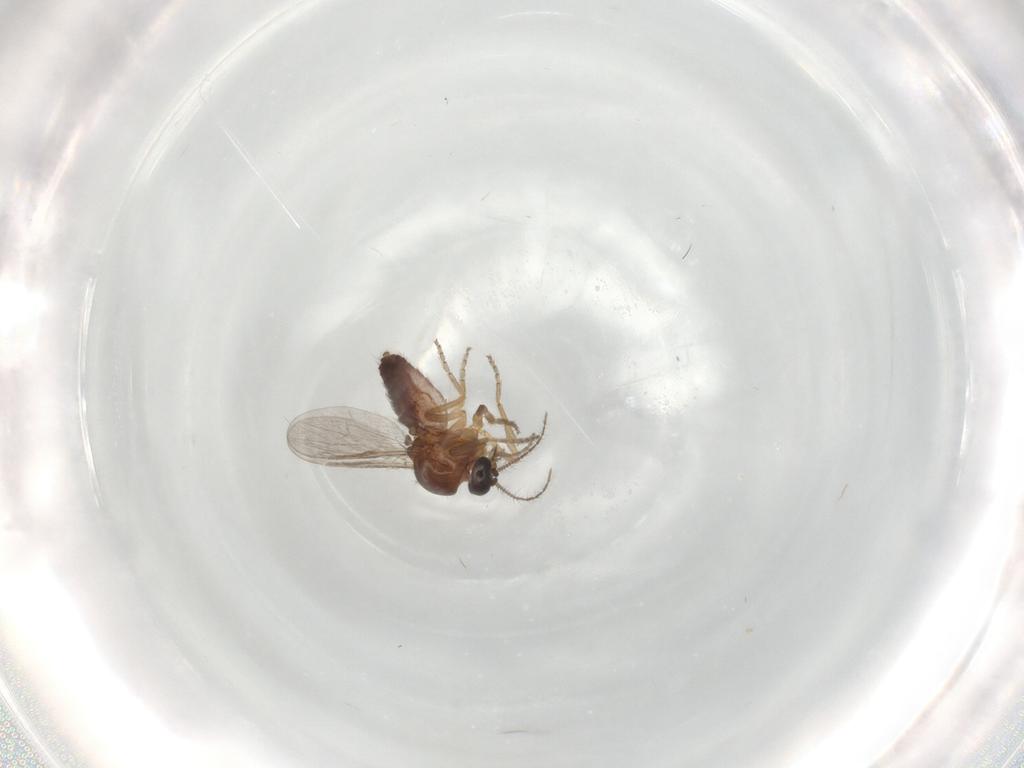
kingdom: Animalia
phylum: Arthropoda
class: Insecta
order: Diptera
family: Ceratopogonidae
